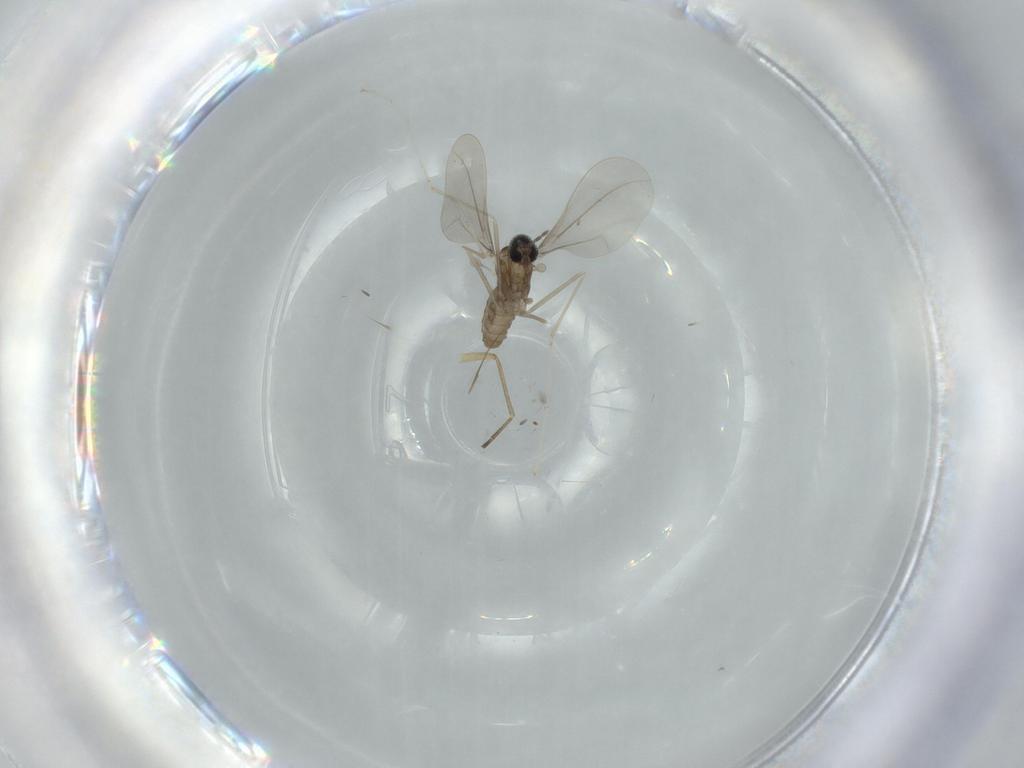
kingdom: Animalia
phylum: Arthropoda
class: Insecta
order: Diptera
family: Cecidomyiidae
